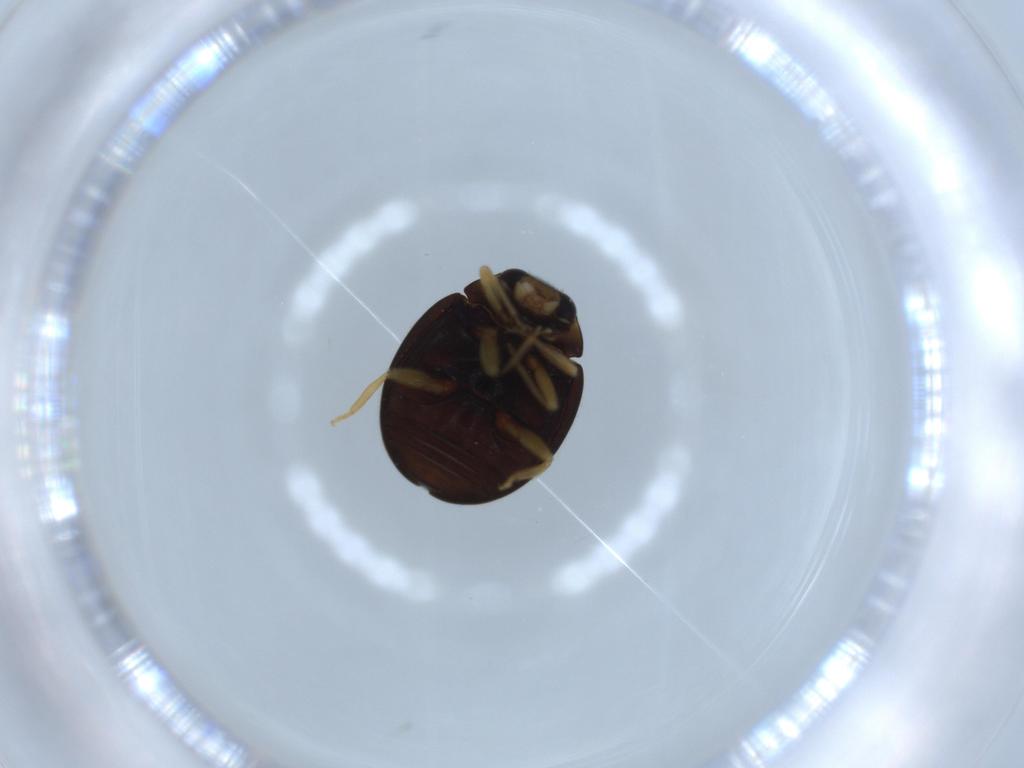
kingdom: Animalia
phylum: Arthropoda
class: Insecta
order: Coleoptera
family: Coccinellidae
